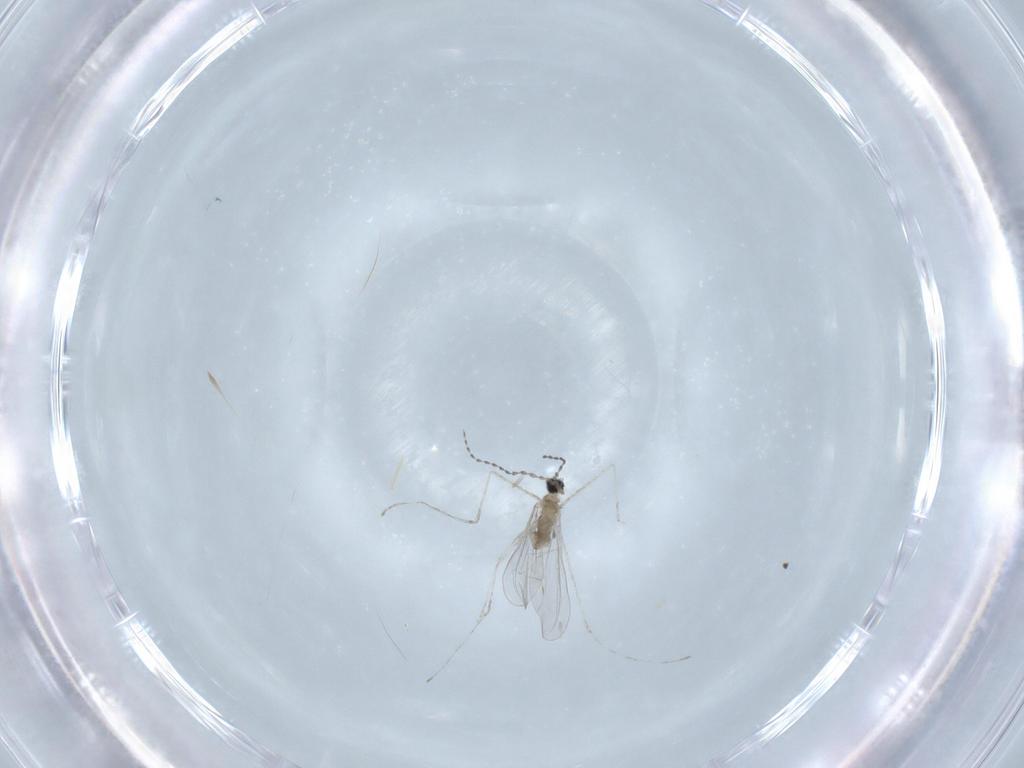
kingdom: Animalia
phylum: Arthropoda
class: Insecta
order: Diptera
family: Cecidomyiidae
